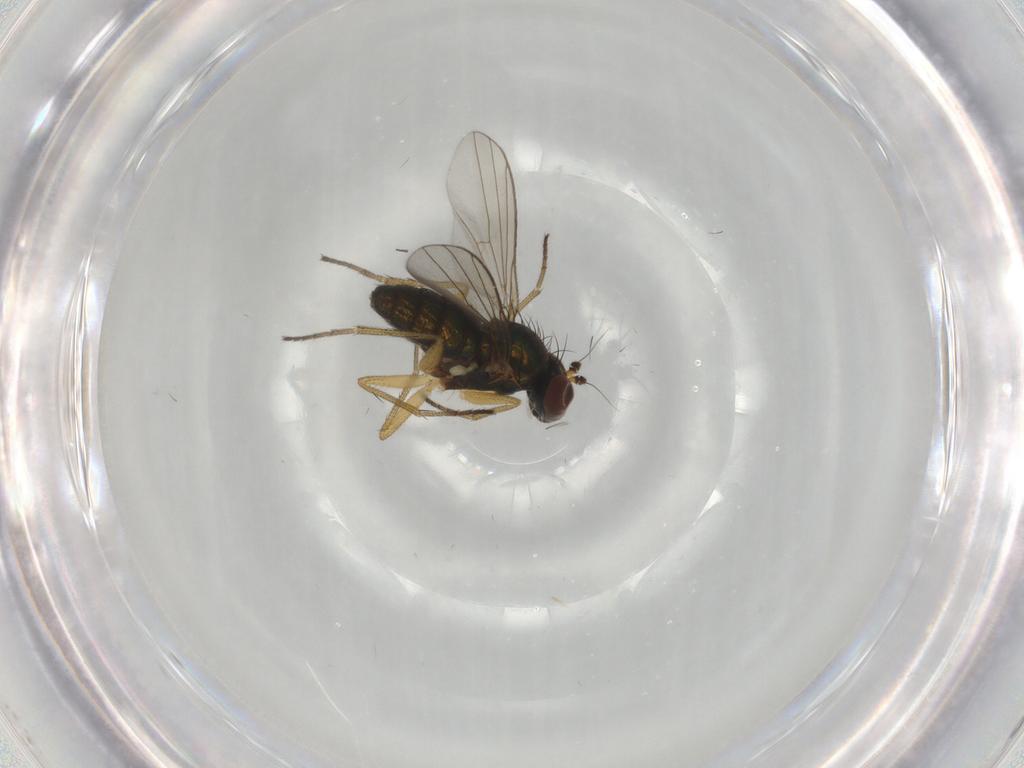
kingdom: Animalia
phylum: Arthropoda
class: Insecta
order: Diptera
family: Dolichopodidae
